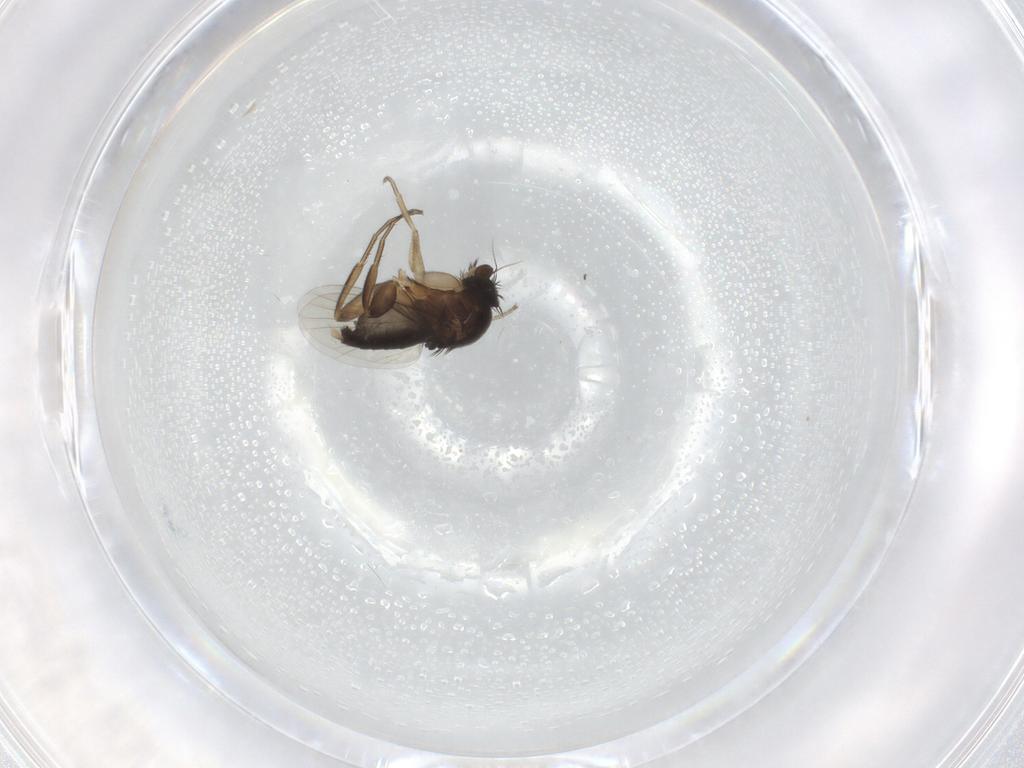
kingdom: Animalia
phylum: Arthropoda
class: Insecta
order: Diptera
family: Phoridae
